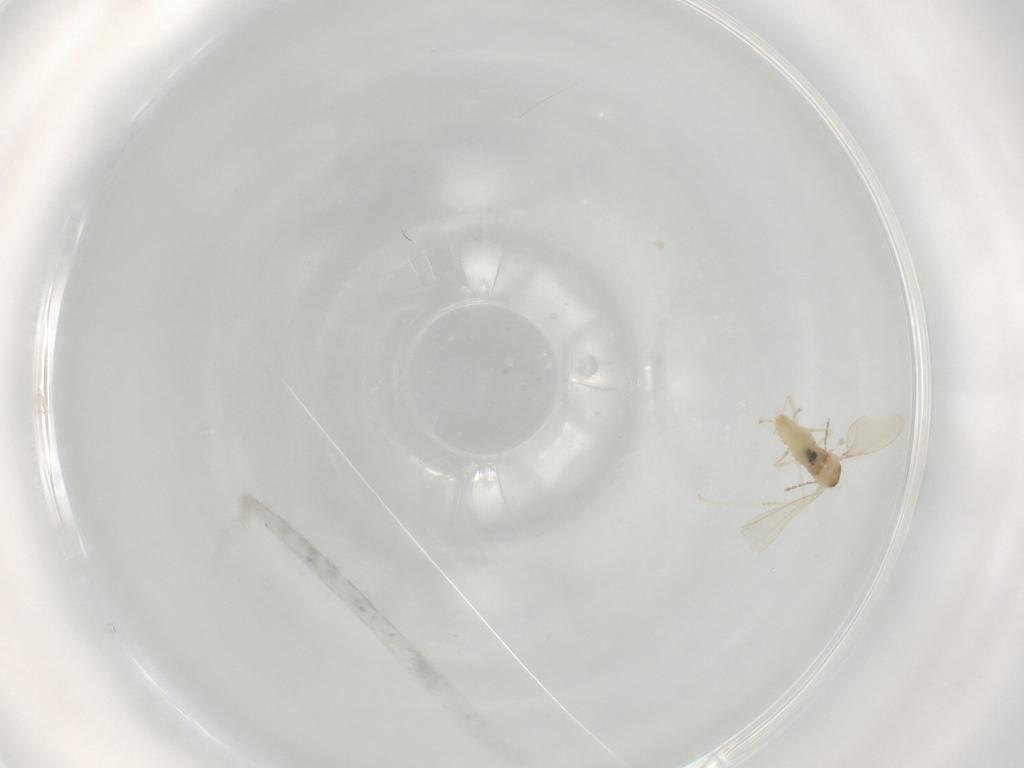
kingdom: Animalia
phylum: Arthropoda
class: Insecta
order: Diptera
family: Cecidomyiidae
